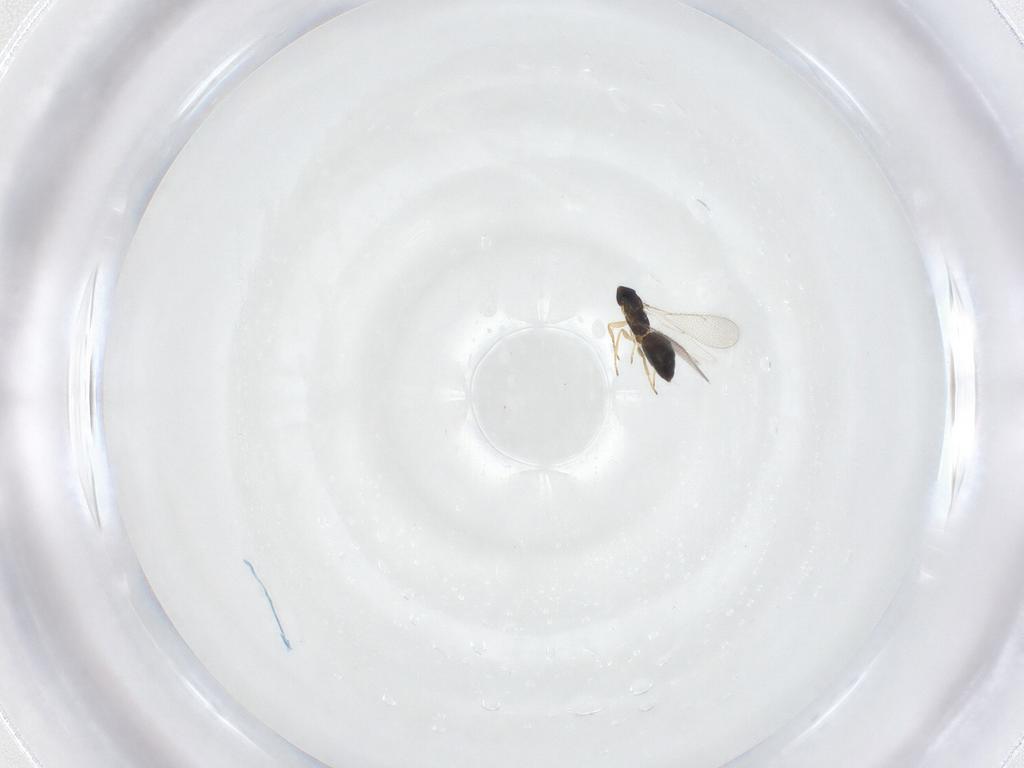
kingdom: Animalia
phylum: Arthropoda
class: Insecta
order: Hymenoptera
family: Eulophidae
